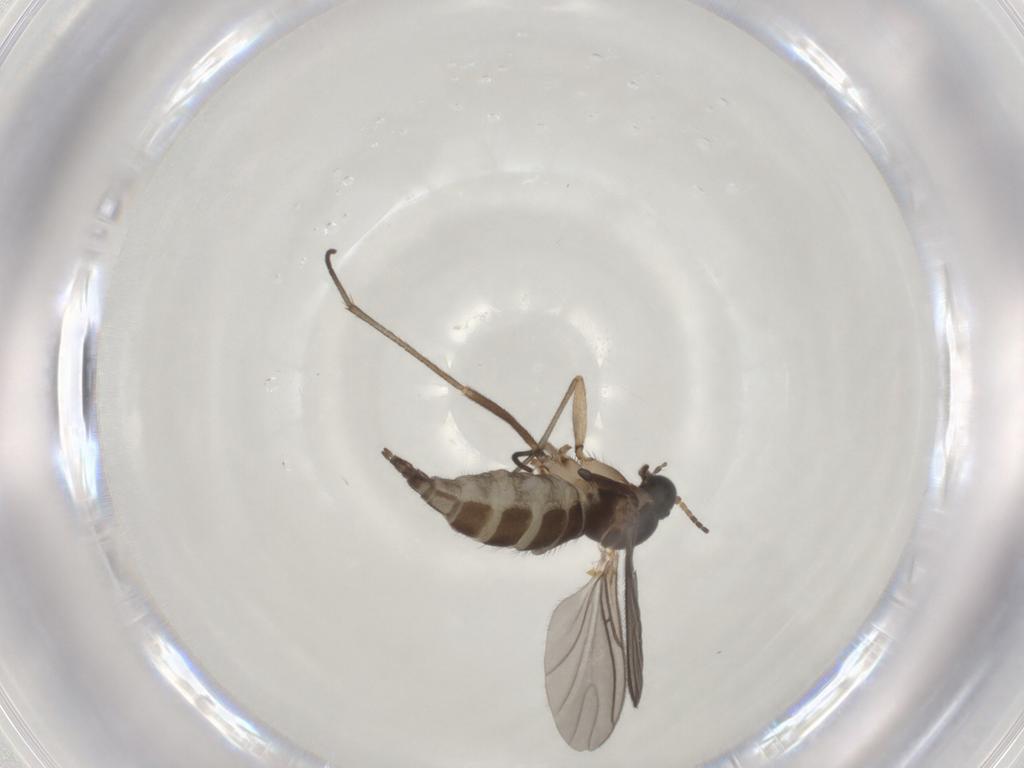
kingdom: Animalia
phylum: Arthropoda
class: Insecta
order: Diptera
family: Sciaridae
